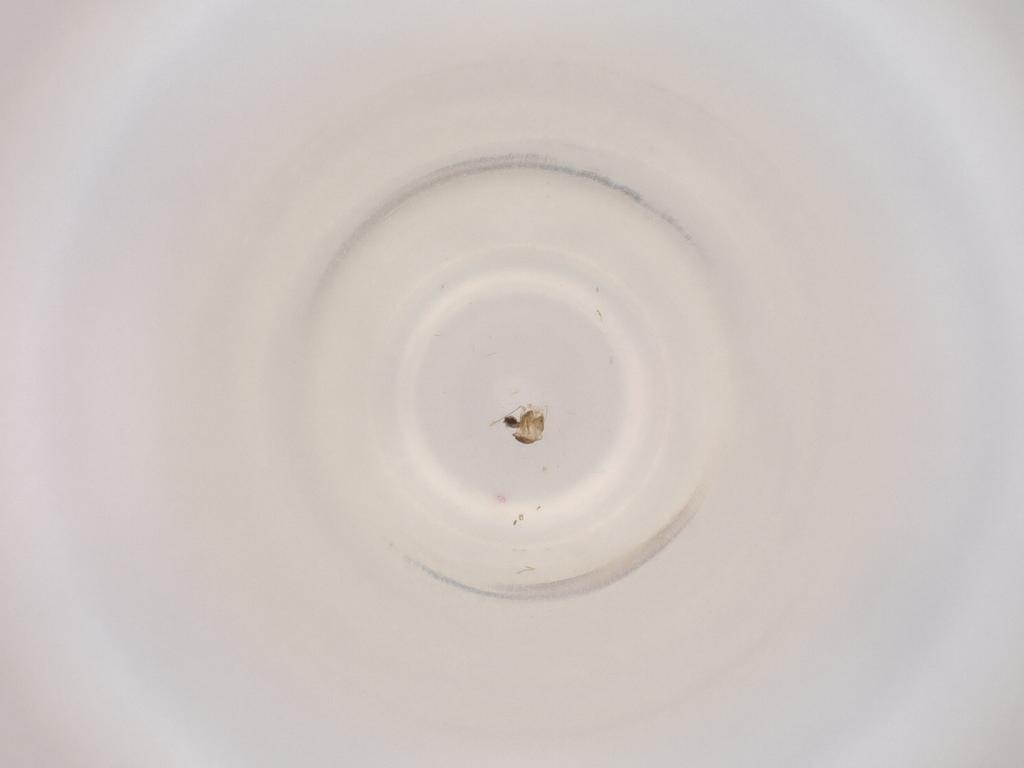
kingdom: Animalia
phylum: Arthropoda
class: Insecta
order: Diptera
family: Cecidomyiidae
